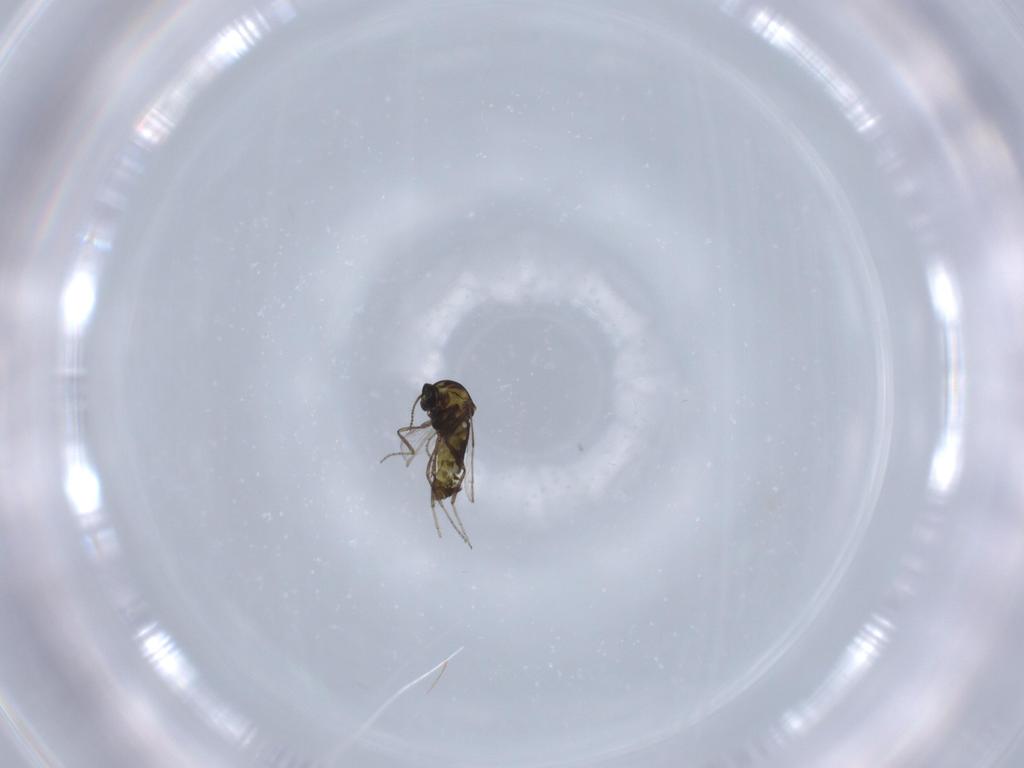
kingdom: Animalia
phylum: Arthropoda
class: Insecta
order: Diptera
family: Ceratopogonidae
